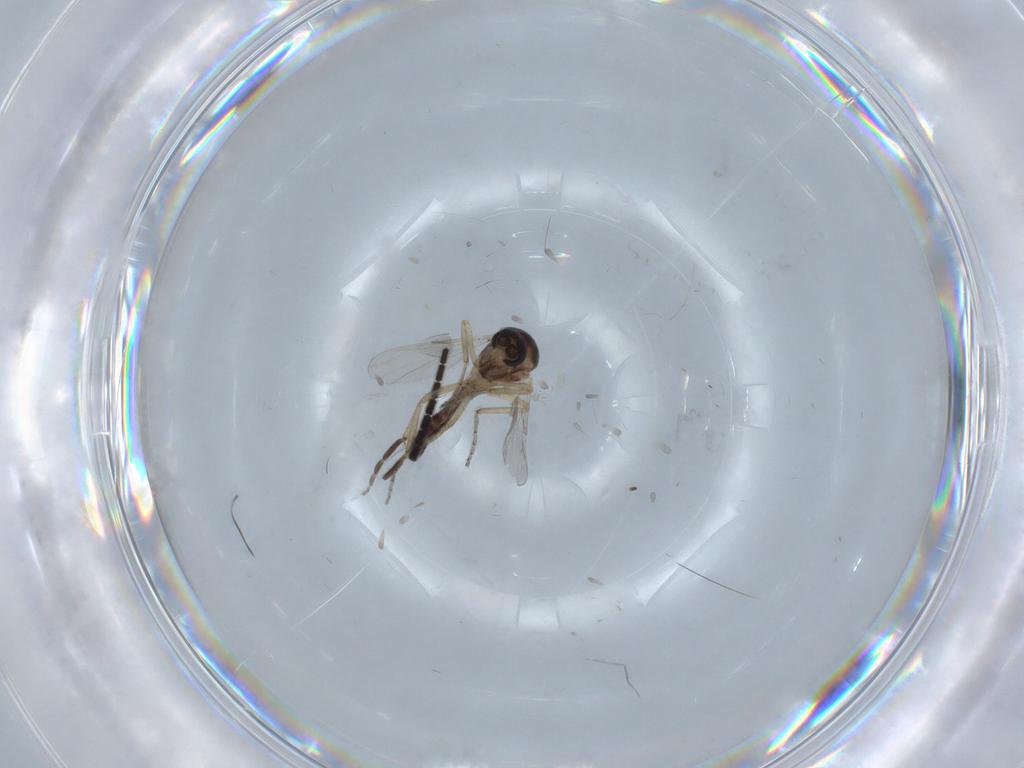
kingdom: Animalia
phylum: Arthropoda
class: Insecta
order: Diptera
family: Ceratopogonidae
